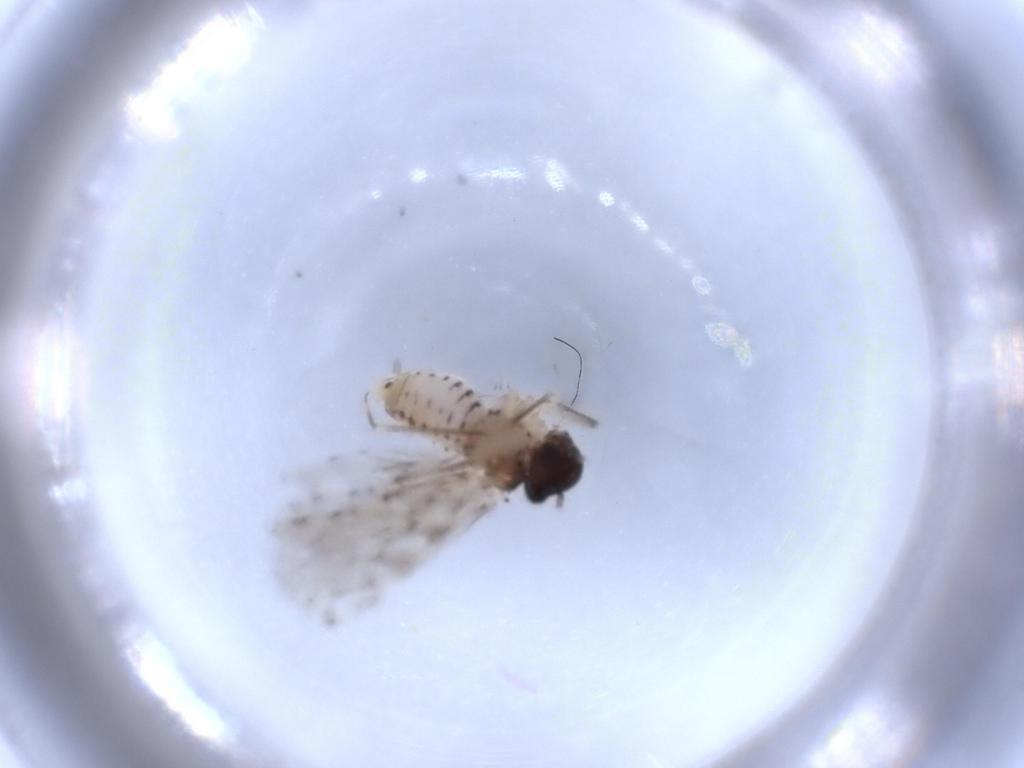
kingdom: Animalia
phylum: Arthropoda
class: Insecta
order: Psocodea
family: Epipsocidae
